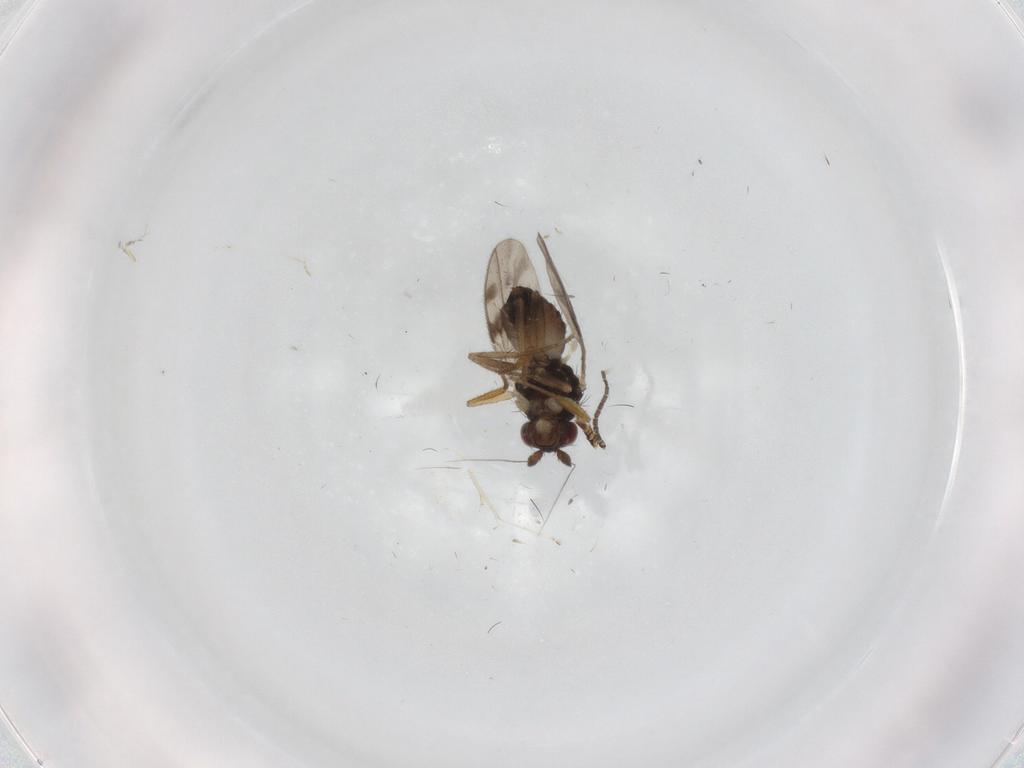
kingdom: Animalia
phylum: Arthropoda
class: Insecta
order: Diptera
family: Sphaeroceridae
